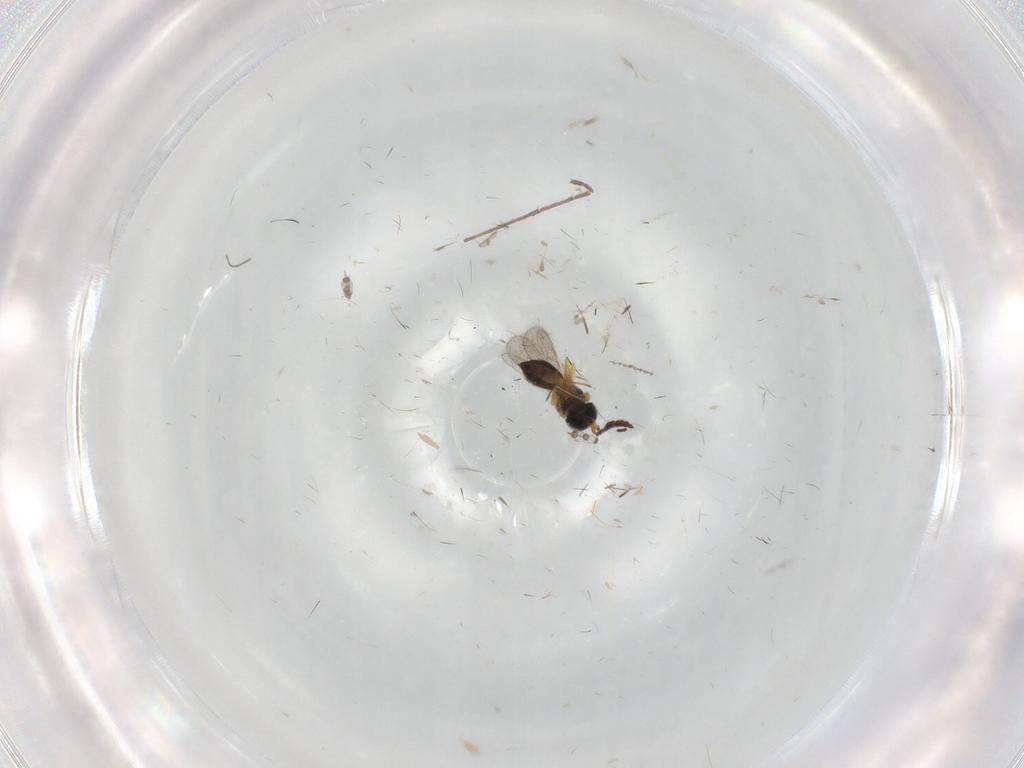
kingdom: Animalia
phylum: Arthropoda
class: Insecta
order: Hymenoptera
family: Scelionidae
